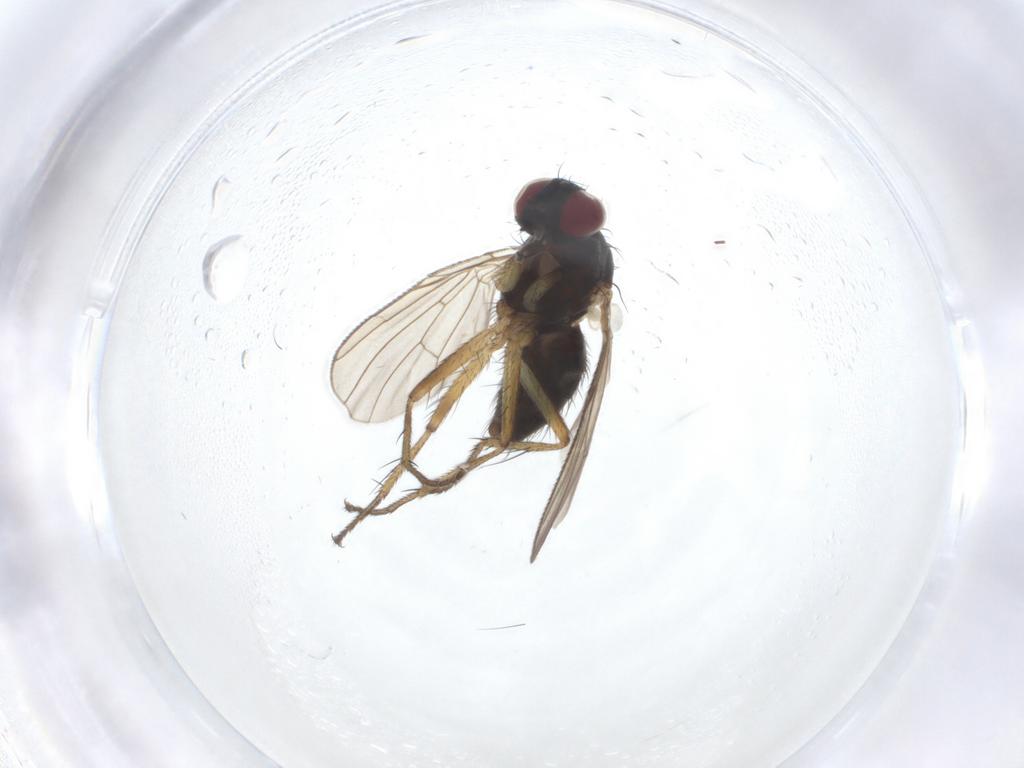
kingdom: Animalia
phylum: Arthropoda
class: Insecta
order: Diptera
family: Muscidae
